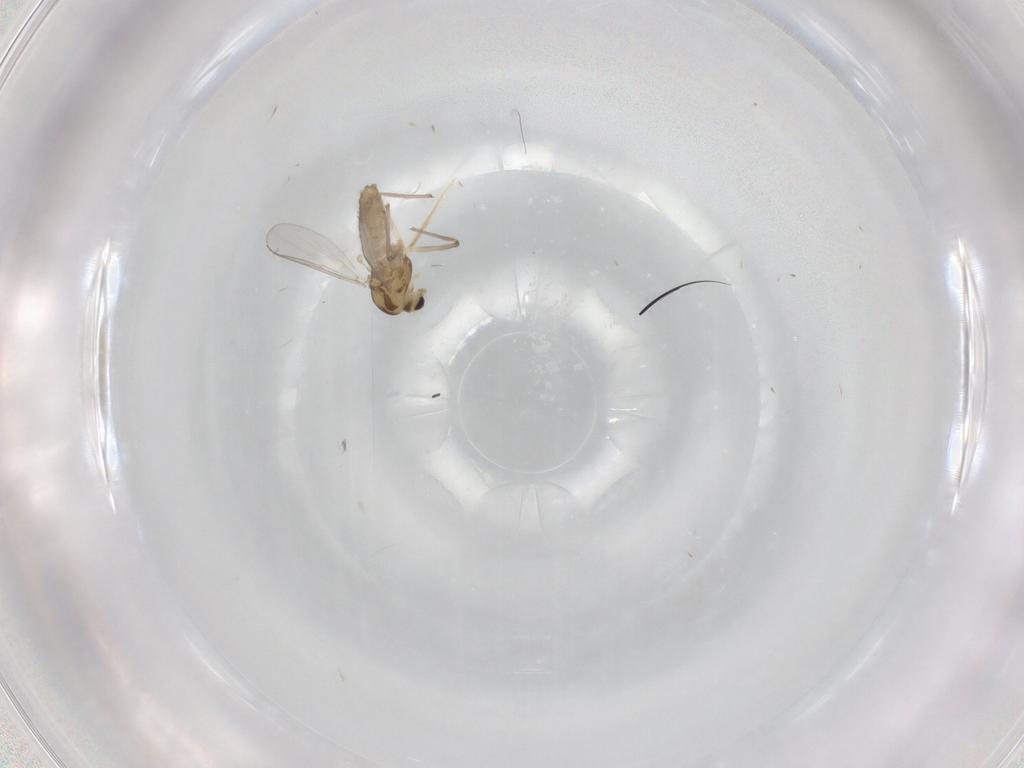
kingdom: Animalia
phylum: Arthropoda
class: Insecta
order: Diptera
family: Chironomidae
